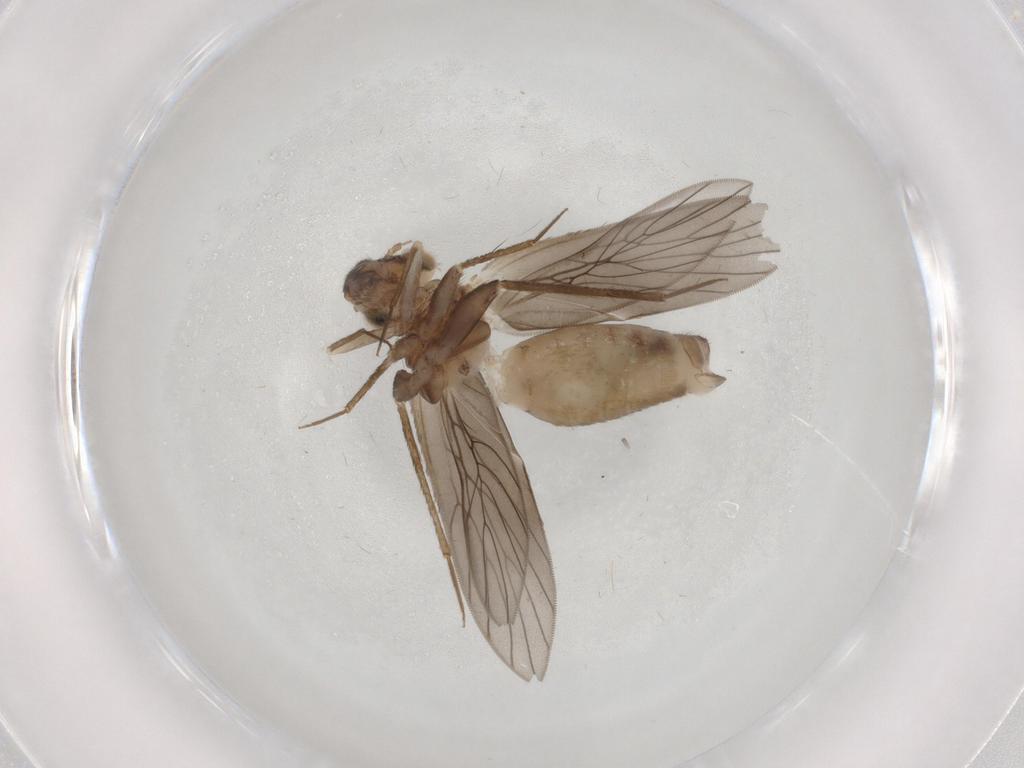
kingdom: Animalia
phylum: Arthropoda
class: Insecta
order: Psocodea
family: Lepidopsocidae
